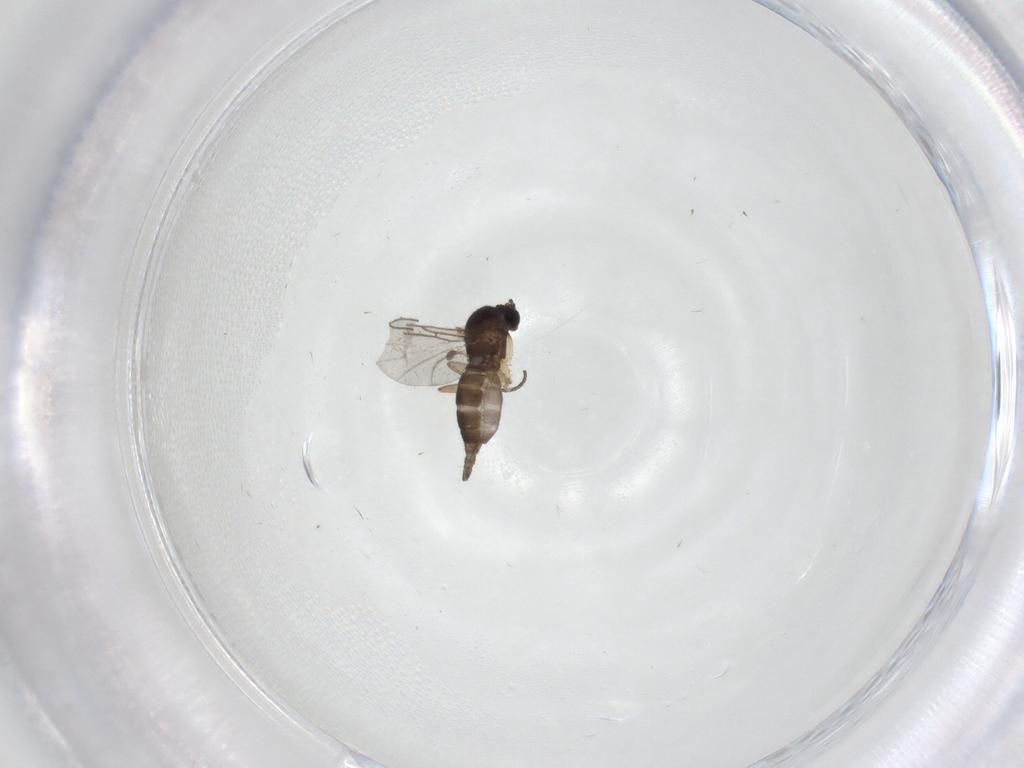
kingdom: Animalia
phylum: Arthropoda
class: Insecta
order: Diptera
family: Sciaridae
